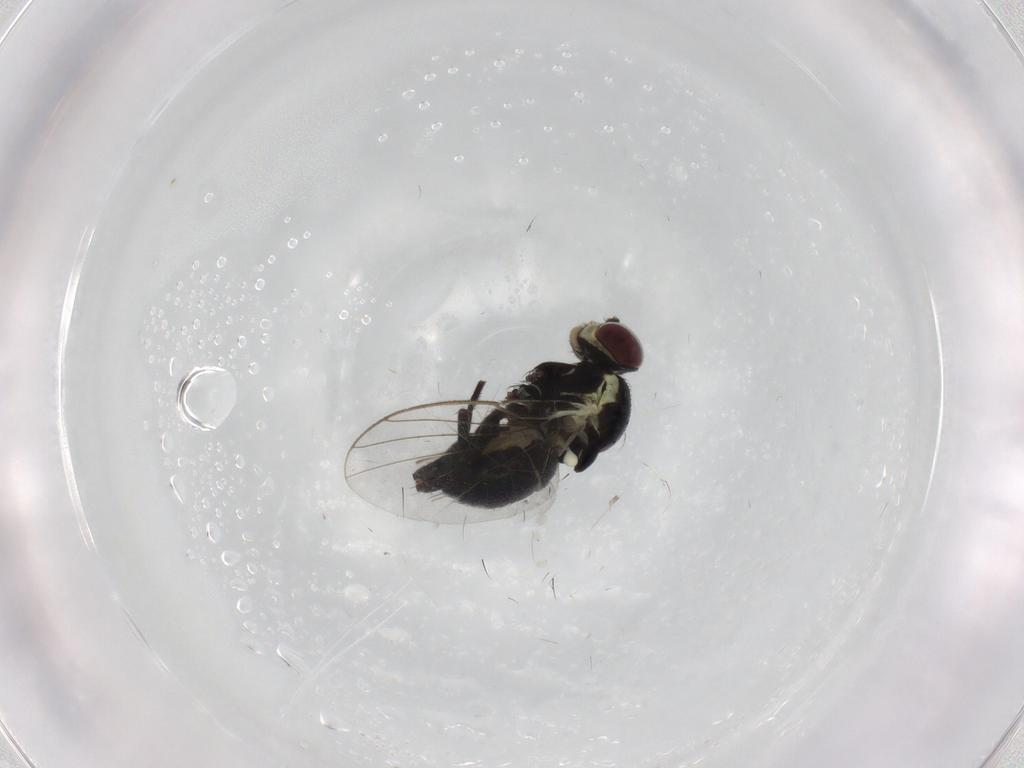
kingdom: Animalia
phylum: Arthropoda
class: Insecta
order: Diptera
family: Agromyzidae
